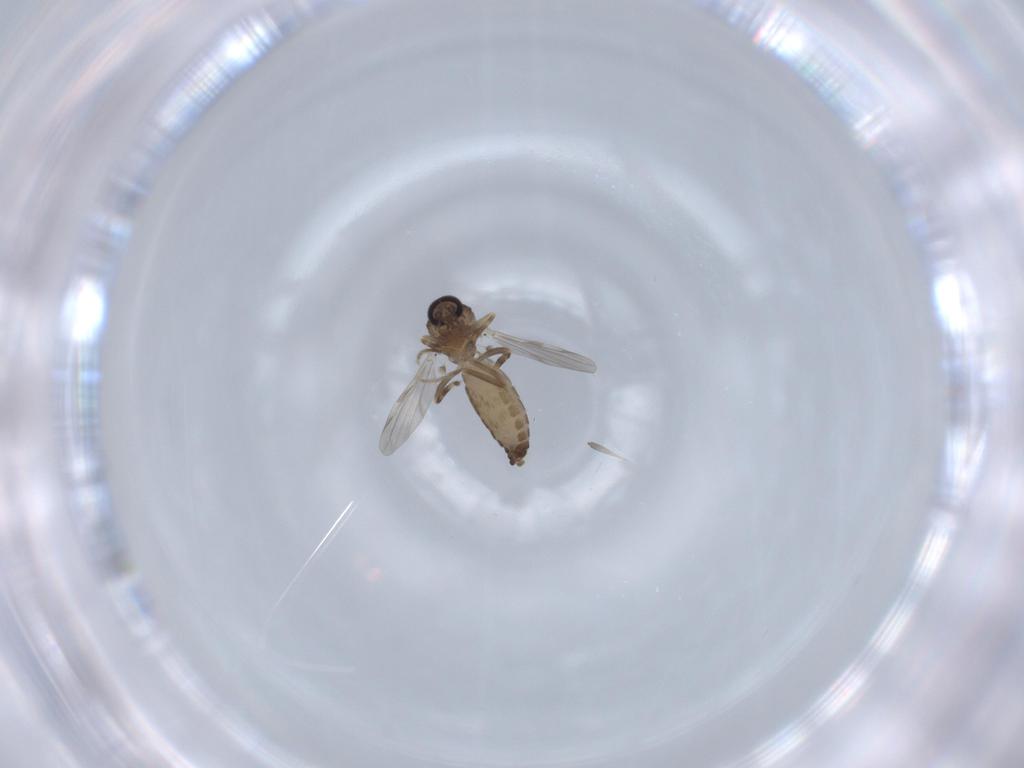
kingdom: Animalia
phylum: Arthropoda
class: Insecta
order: Diptera
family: Ceratopogonidae
